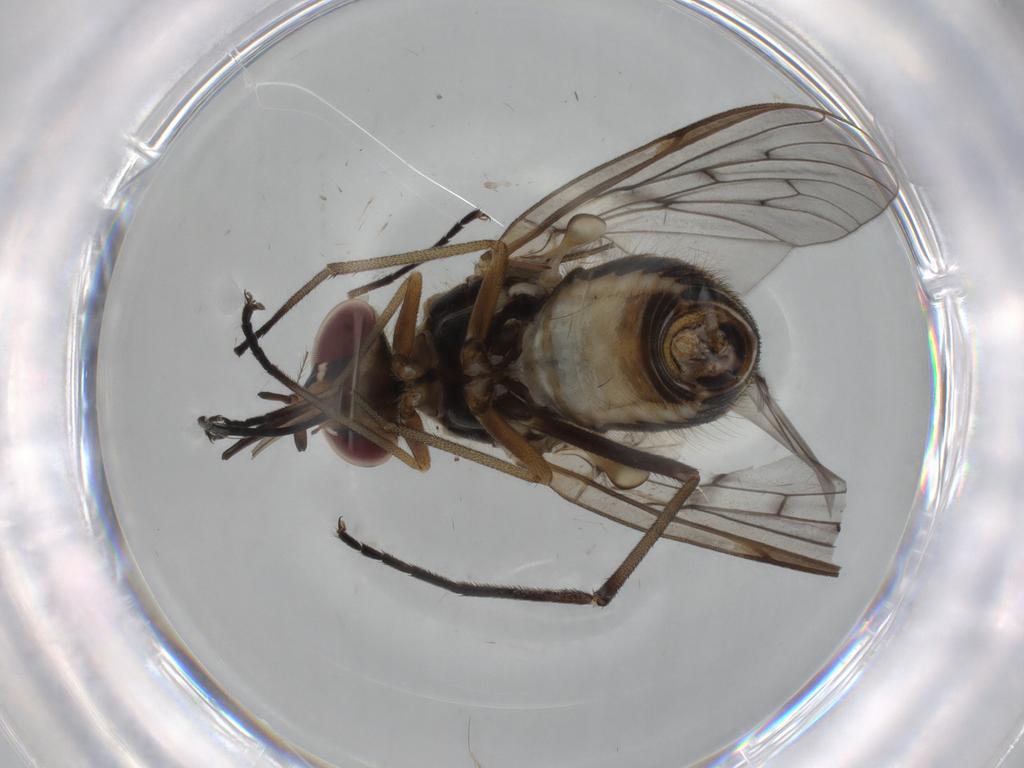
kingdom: Animalia
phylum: Arthropoda
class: Insecta
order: Diptera
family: Bombyliidae
